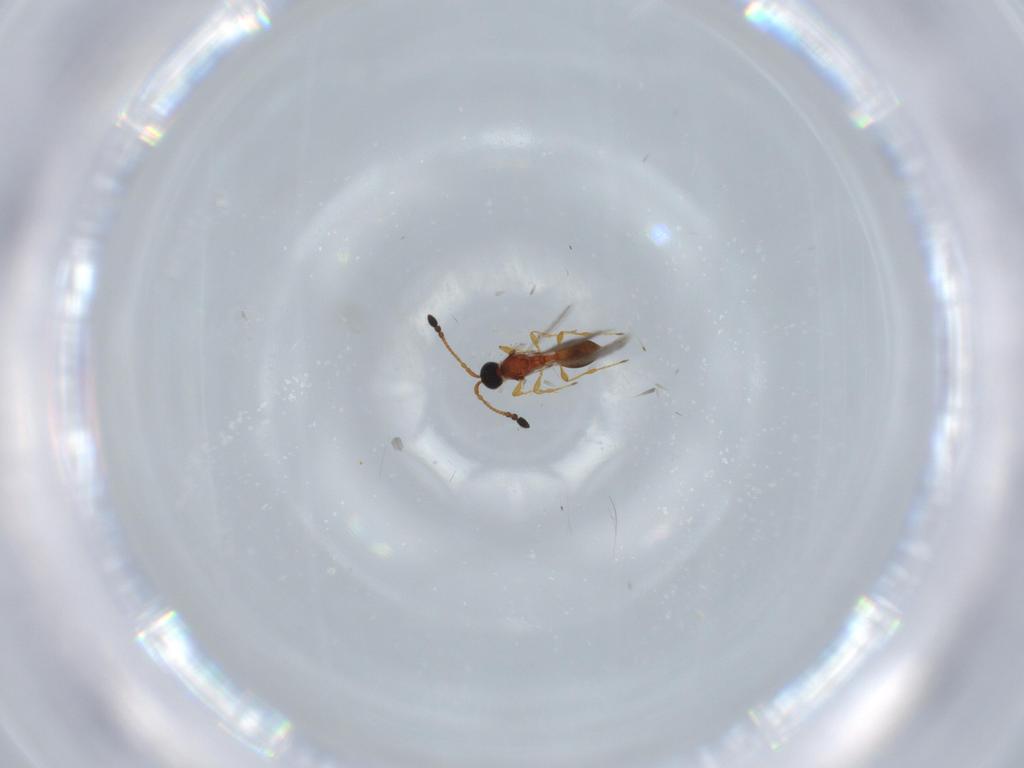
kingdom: Animalia
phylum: Arthropoda
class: Insecta
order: Hymenoptera
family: Diapriidae
